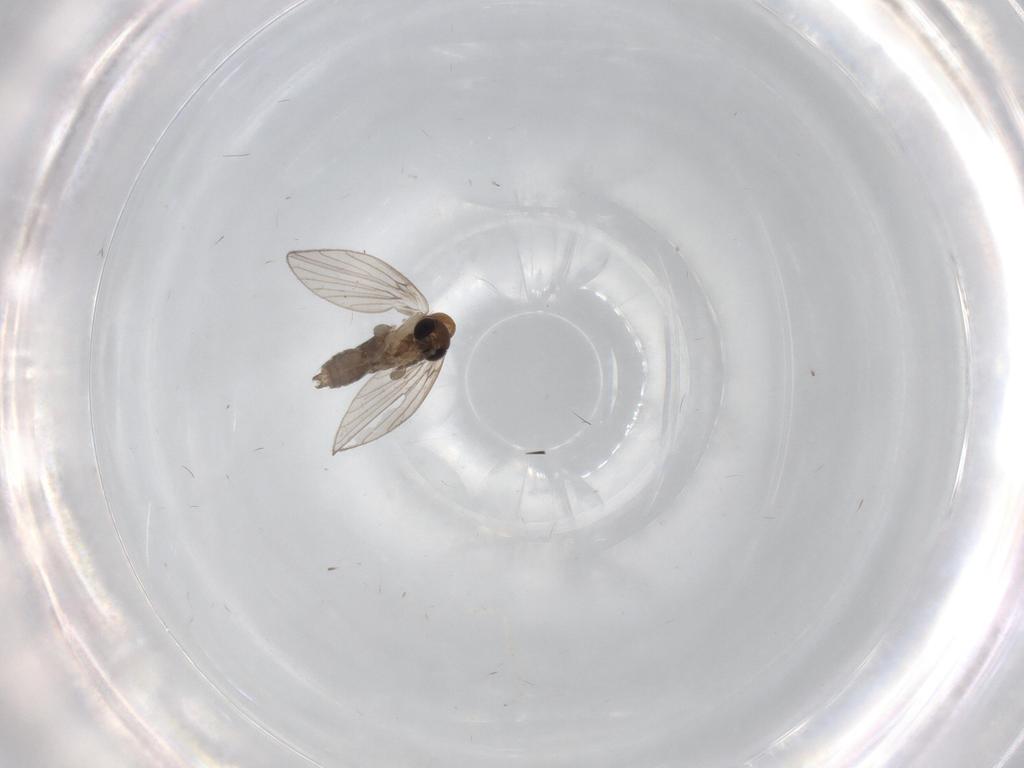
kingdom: Animalia
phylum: Arthropoda
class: Insecta
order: Diptera
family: Psychodidae
